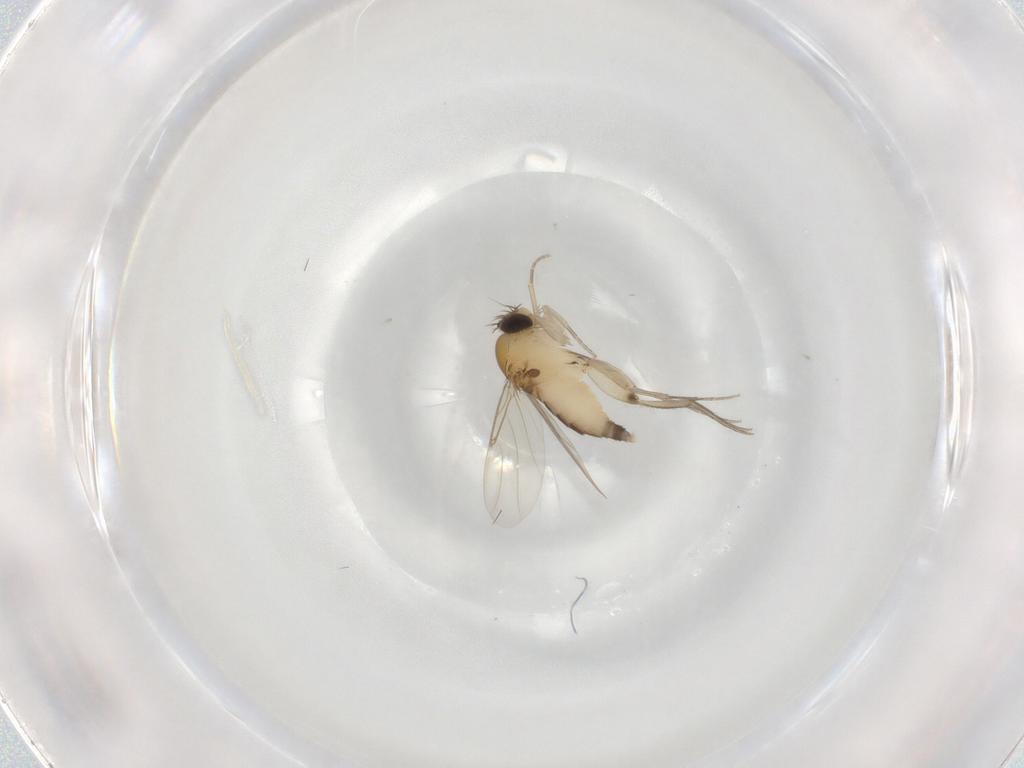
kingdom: Animalia
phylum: Arthropoda
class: Insecta
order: Diptera
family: Phoridae
